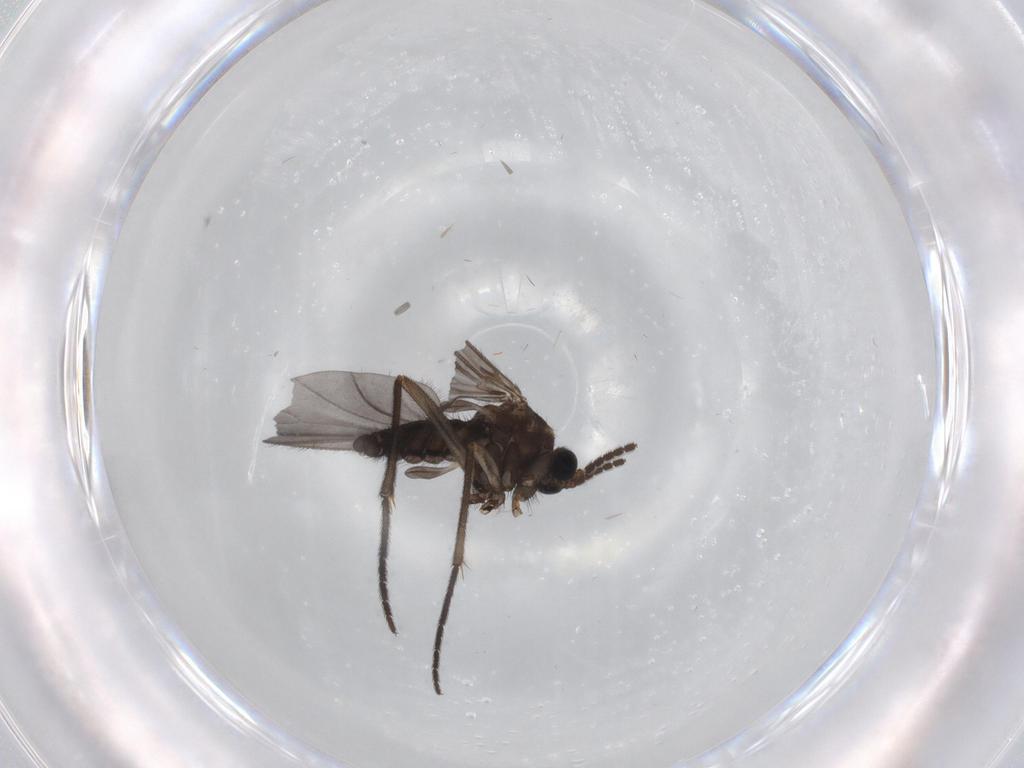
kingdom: Animalia
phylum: Arthropoda
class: Insecta
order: Diptera
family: Sciaridae
